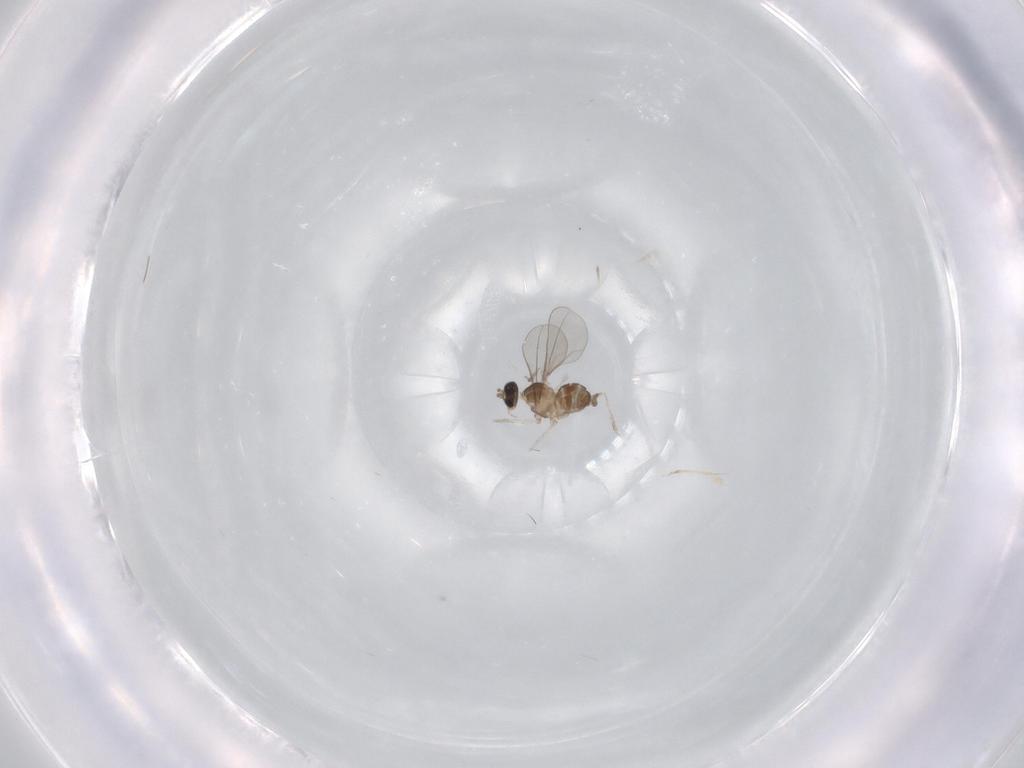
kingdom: Animalia
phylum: Arthropoda
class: Insecta
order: Diptera
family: Cecidomyiidae
